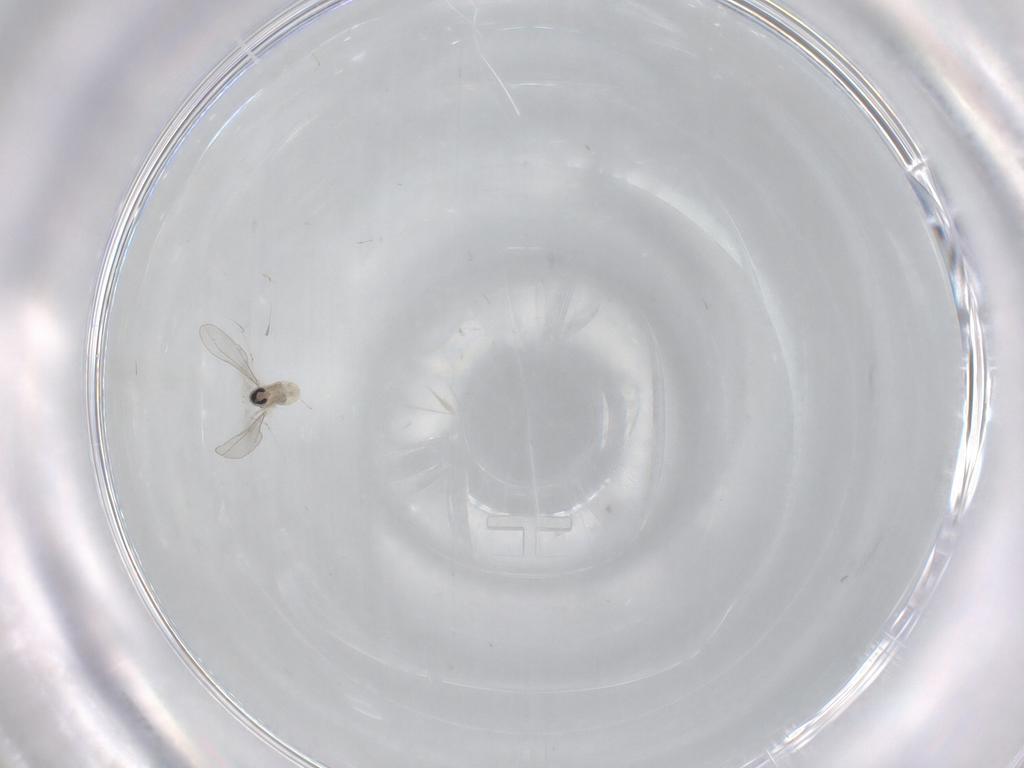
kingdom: Animalia
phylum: Arthropoda
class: Insecta
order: Diptera
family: Cecidomyiidae
